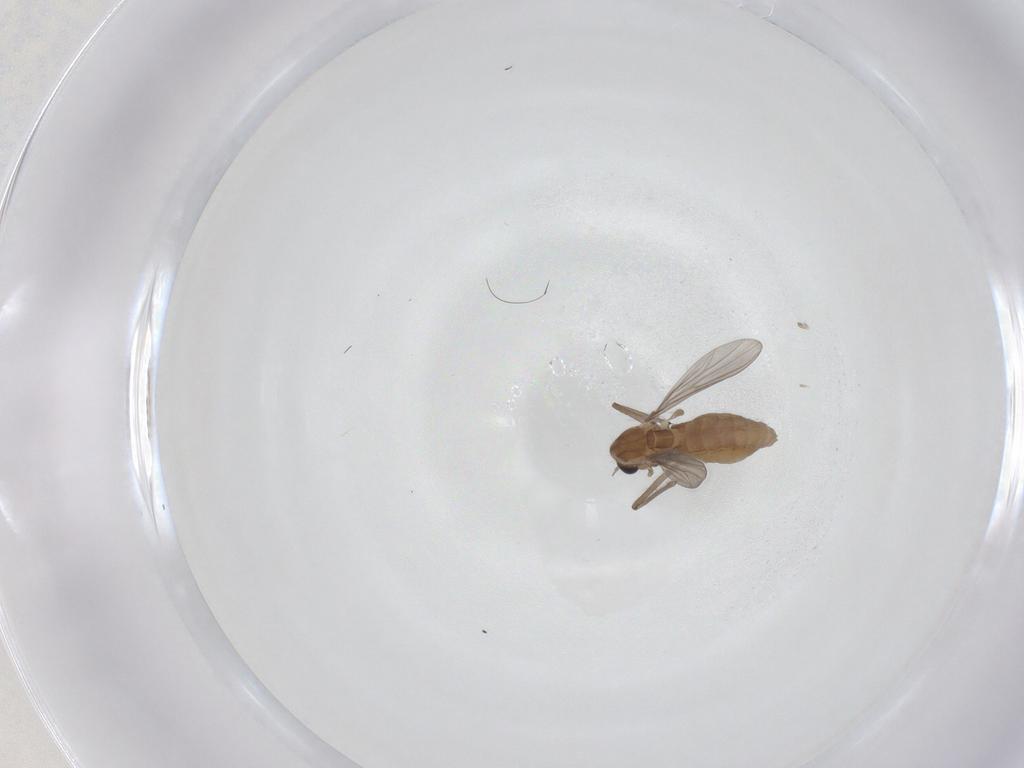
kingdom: Animalia
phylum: Arthropoda
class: Insecta
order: Diptera
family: Chironomidae
